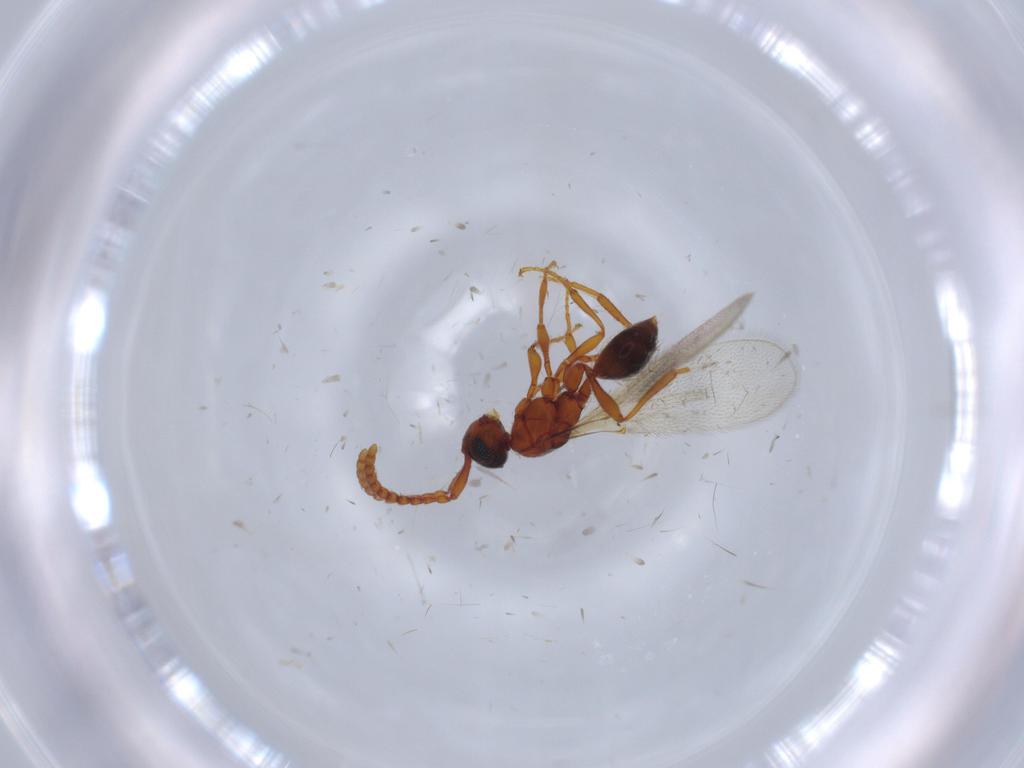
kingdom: Animalia
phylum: Arthropoda
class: Insecta
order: Hymenoptera
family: Diapriidae
